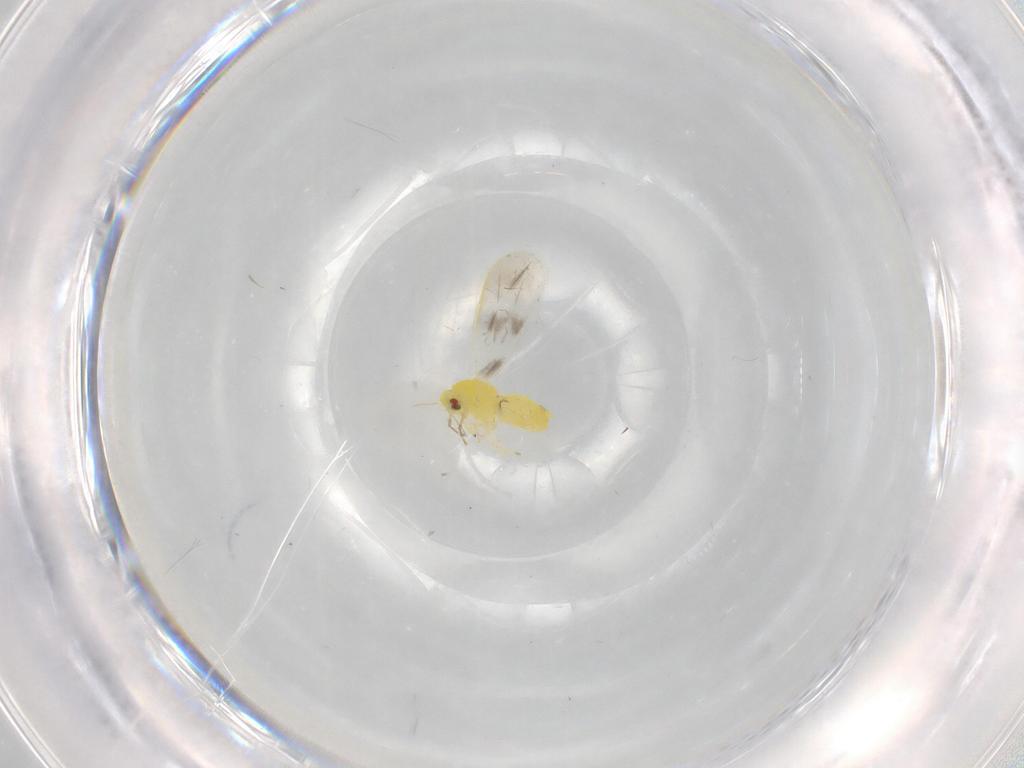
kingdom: Animalia
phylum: Arthropoda
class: Insecta
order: Hemiptera
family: Aleyrodidae
